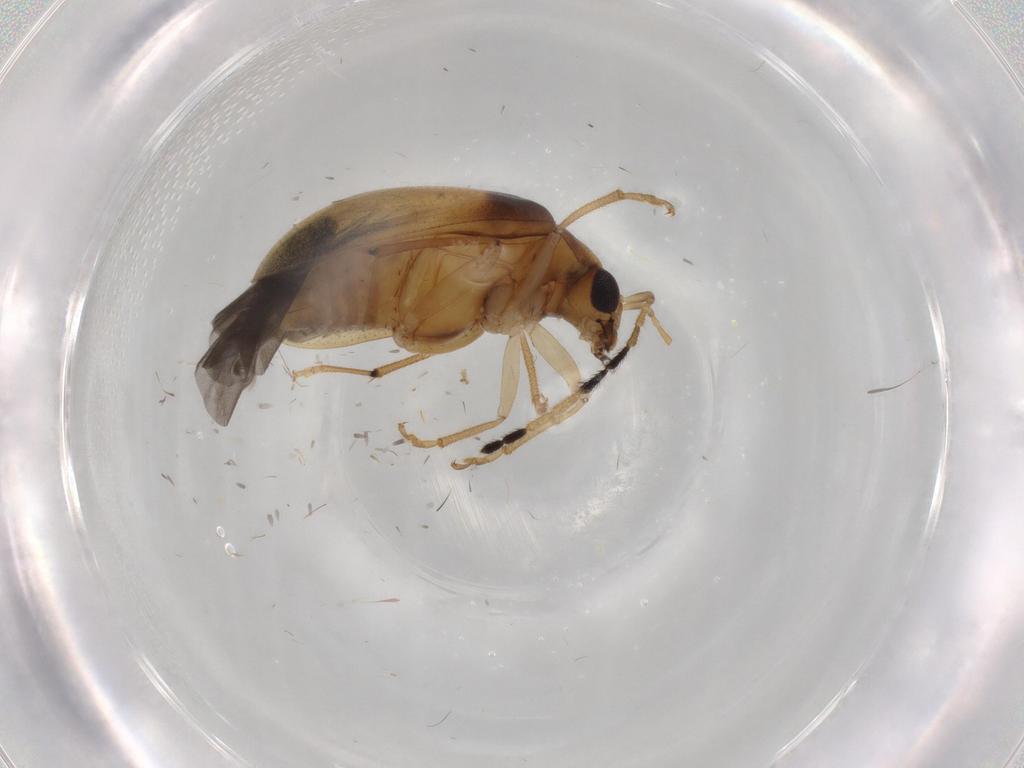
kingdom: Animalia
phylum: Arthropoda
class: Insecta
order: Coleoptera
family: Chrysomelidae
